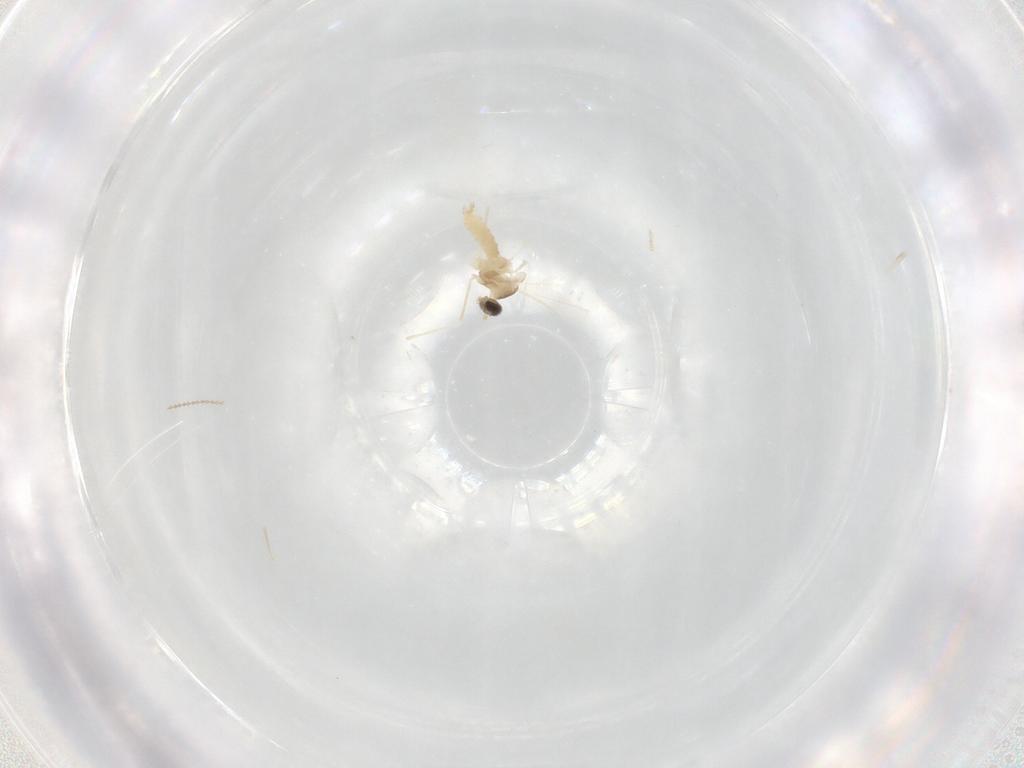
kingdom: Animalia
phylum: Arthropoda
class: Insecta
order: Diptera
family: Cecidomyiidae
